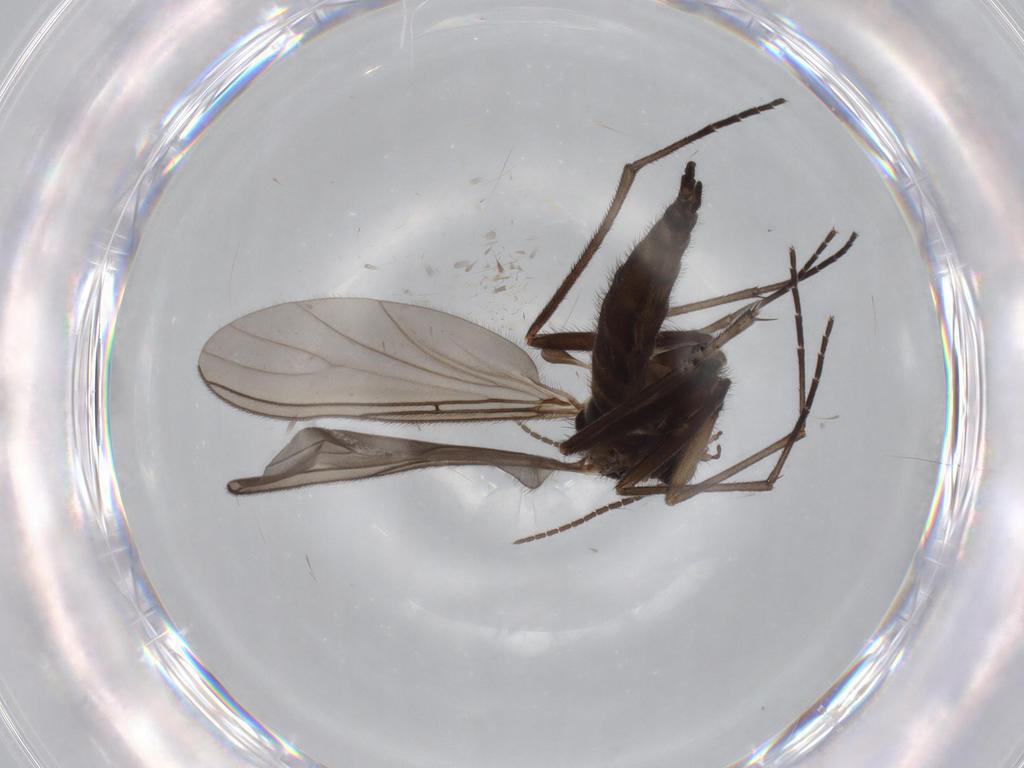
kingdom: Animalia
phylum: Arthropoda
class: Insecta
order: Diptera
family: Sciaridae
